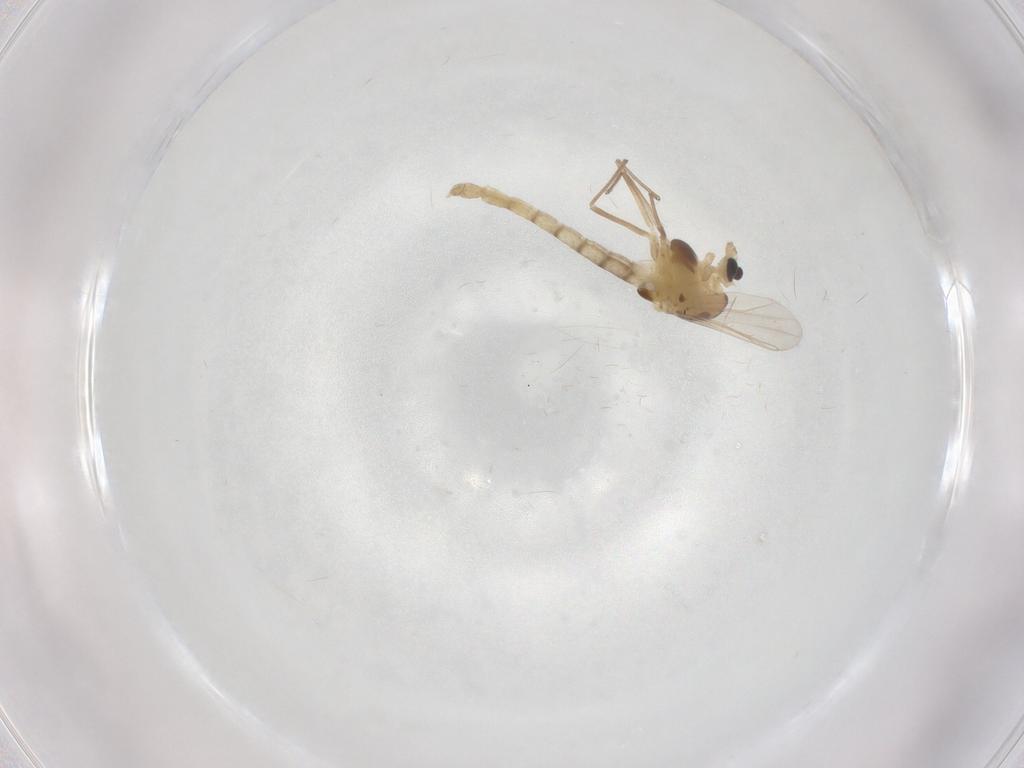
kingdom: Animalia
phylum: Arthropoda
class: Insecta
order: Diptera
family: Chironomidae
